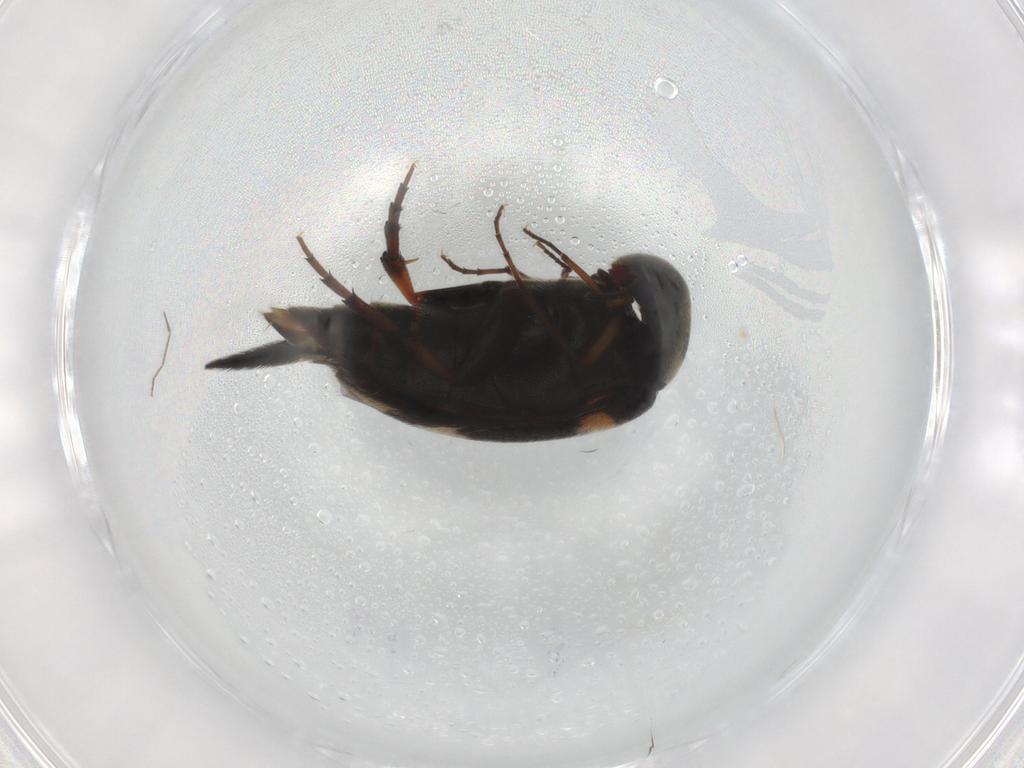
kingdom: Animalia
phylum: Arthropoda
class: Insecta
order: Coleoptera
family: Mordellidae
